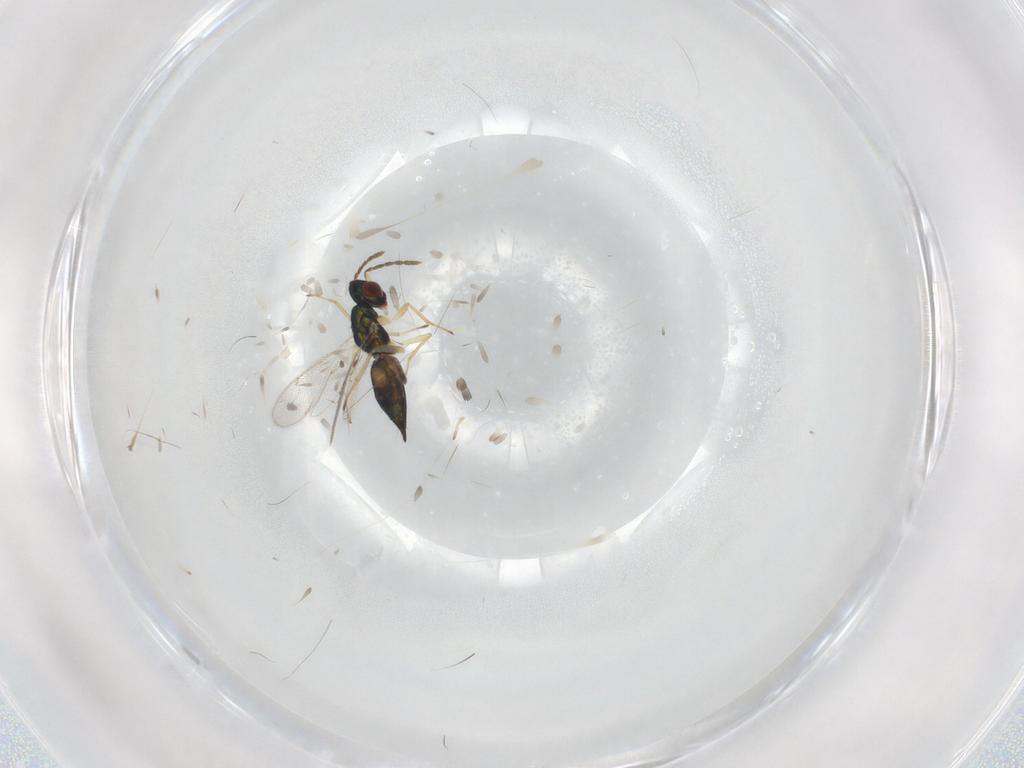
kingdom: Animalia
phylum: Arthropoda
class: Insecta
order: Hymenoptera
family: Eulophidae
